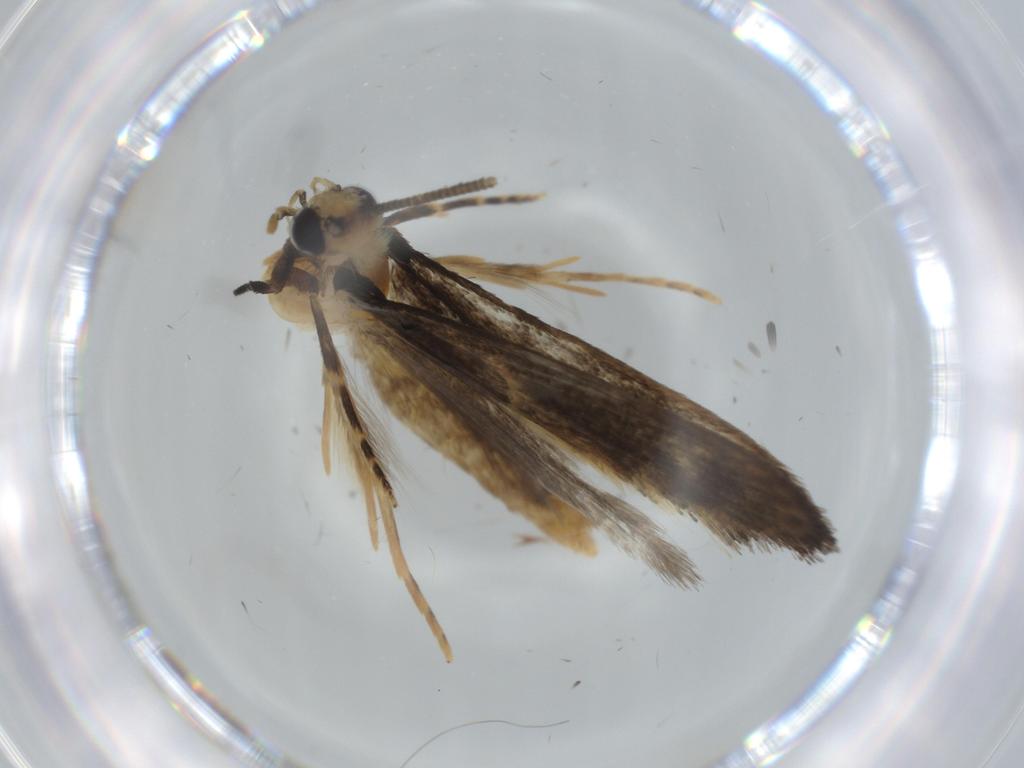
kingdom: Animalia
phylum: Arthropoda
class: Insecta
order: Lepidoptera
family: Tineidae
